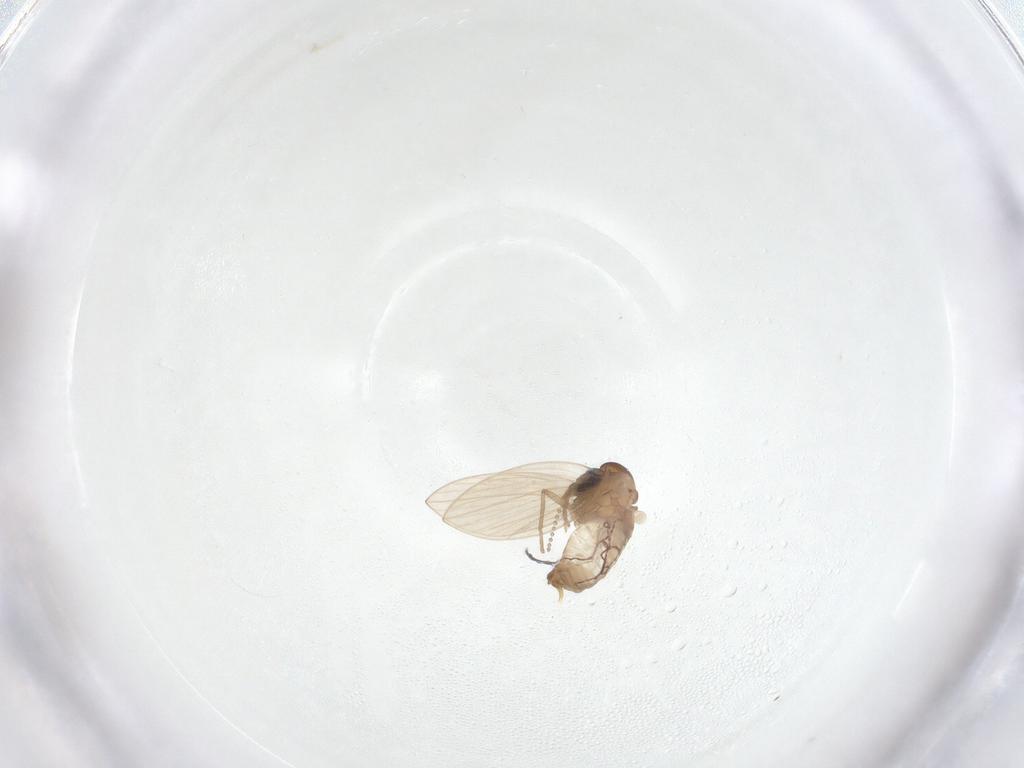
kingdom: Animalia
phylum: Arthropoda
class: Insecta
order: Diptera
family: Psychodidae
